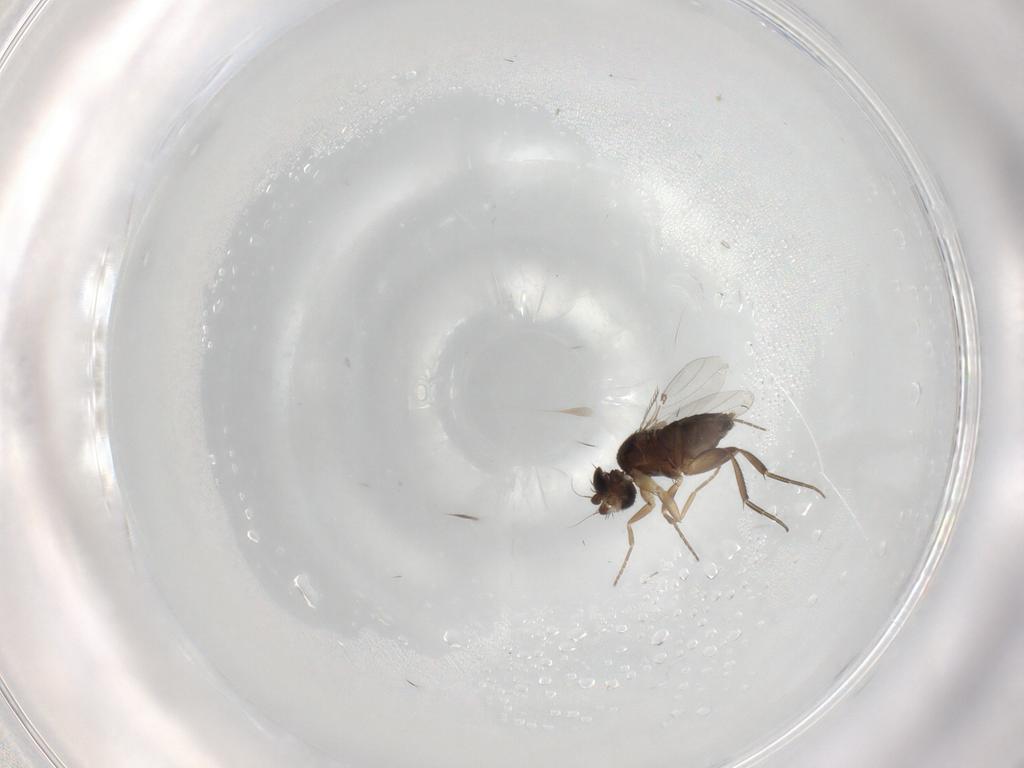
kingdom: Animalia
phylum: Arthropoda
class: Insecta
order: Diptera
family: Phoridae
